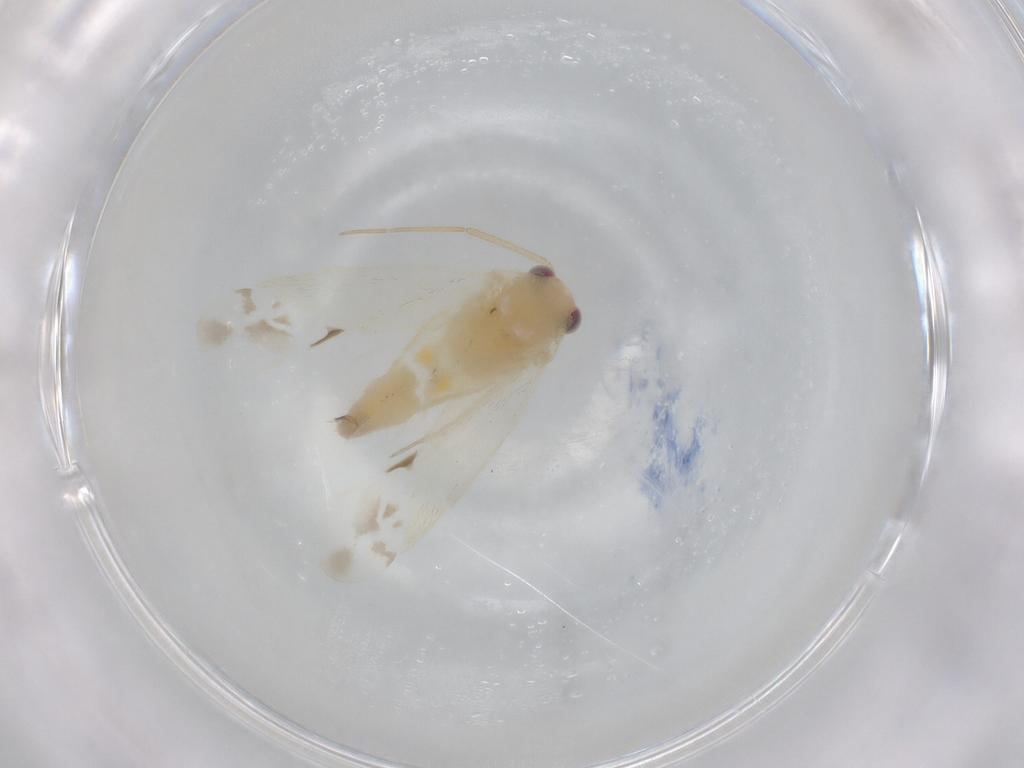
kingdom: Animalia
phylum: Arthropoda
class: Insecta
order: Hemiptera
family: Miridae
